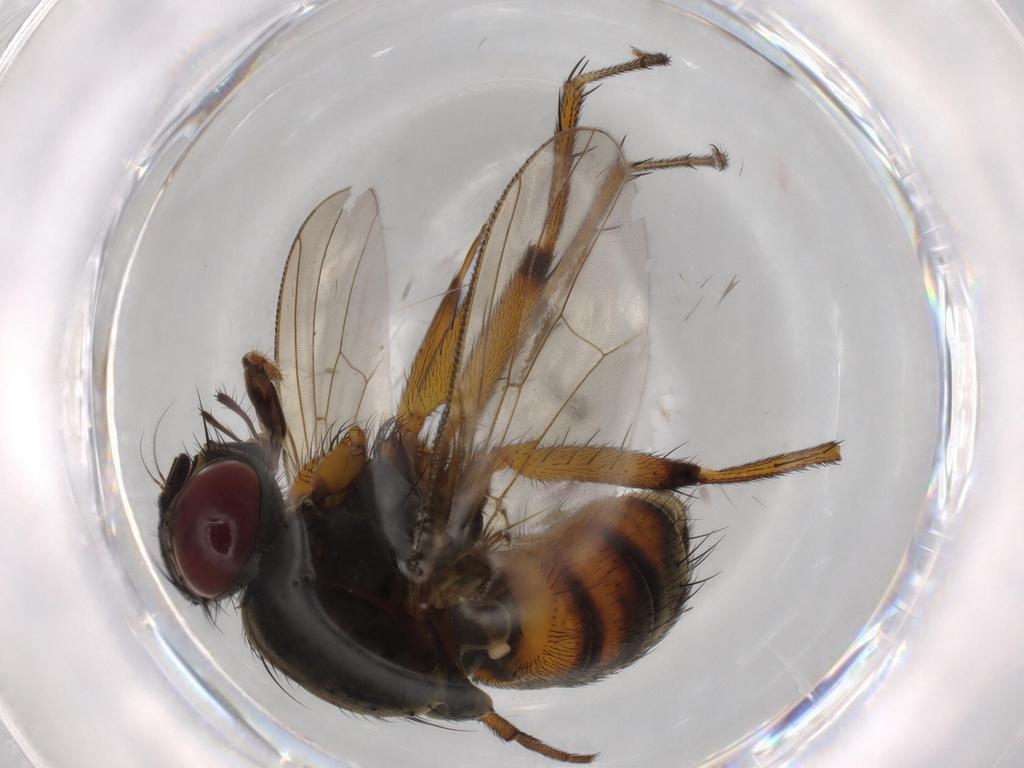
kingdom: Animalia
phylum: Arthropoda
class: Insecta
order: Diptera
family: Muscidae
